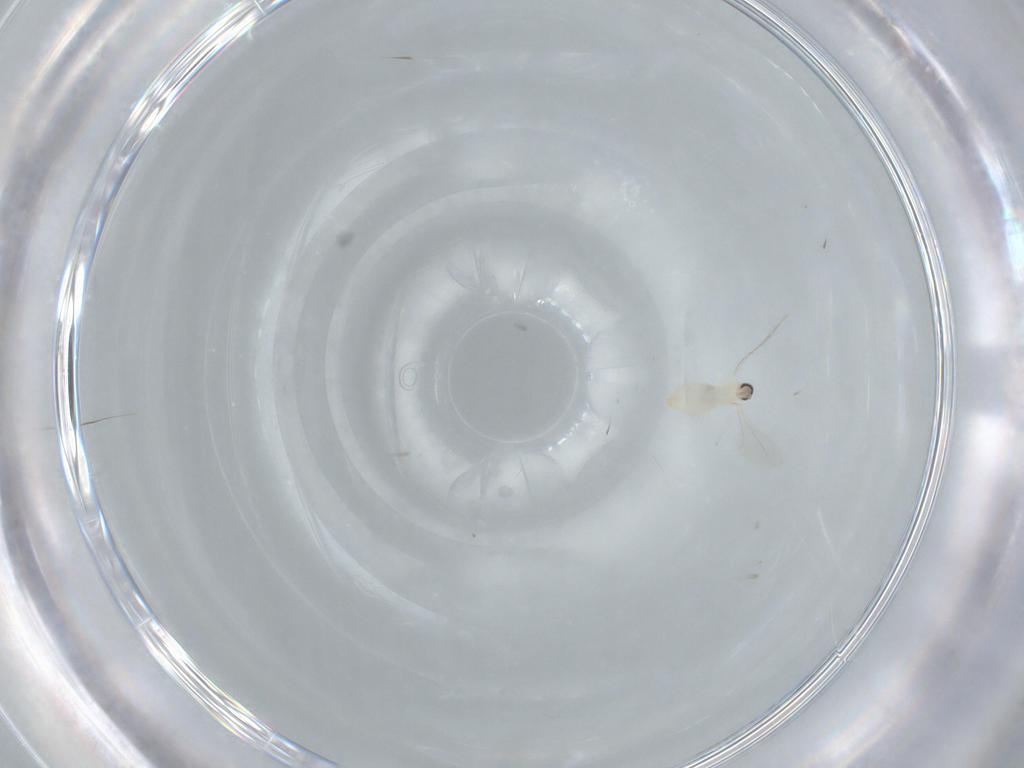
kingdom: Animalia
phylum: Arthropoda
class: Insecta
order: Diptera
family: Cecidomyiidae
